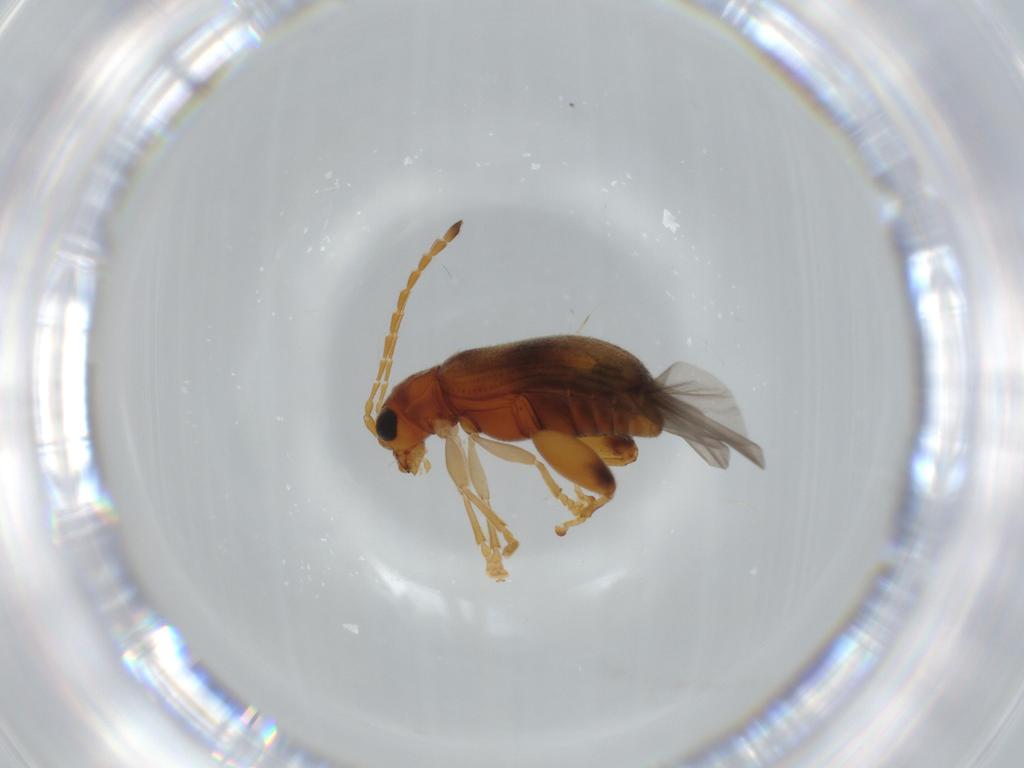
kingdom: Animalia
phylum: Arthropoda
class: Insecta
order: Coleoptera
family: Chrysomelidae
